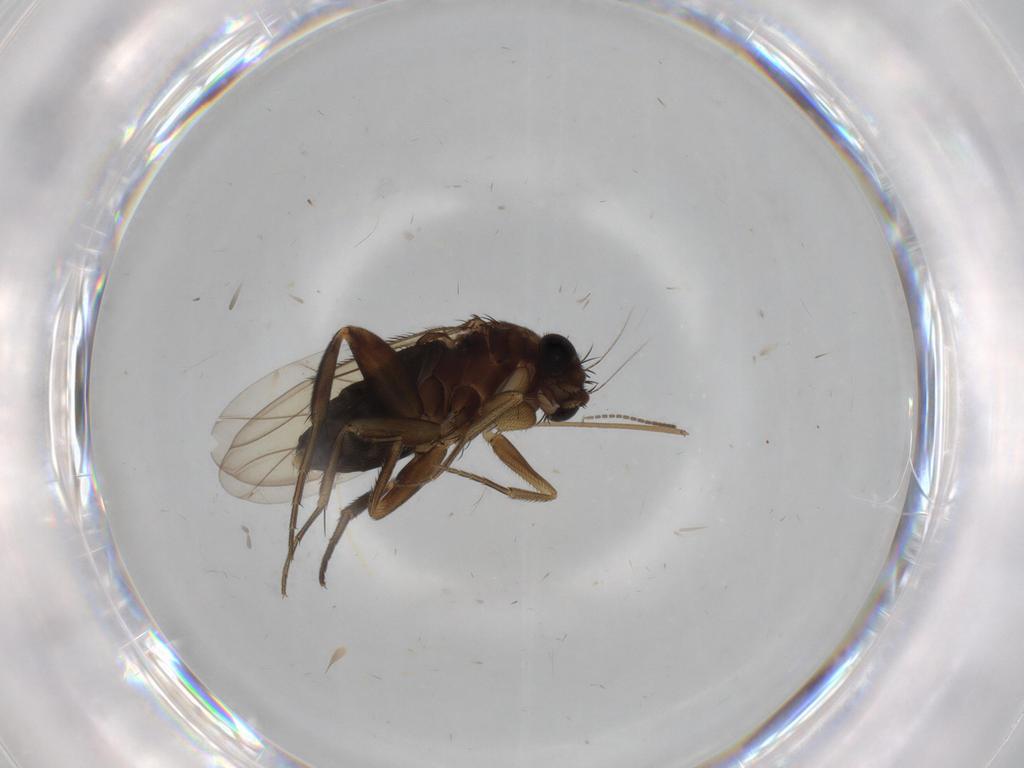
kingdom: Animalia
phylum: Arthropoda
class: Insecta
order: Diptera
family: Phoridae
